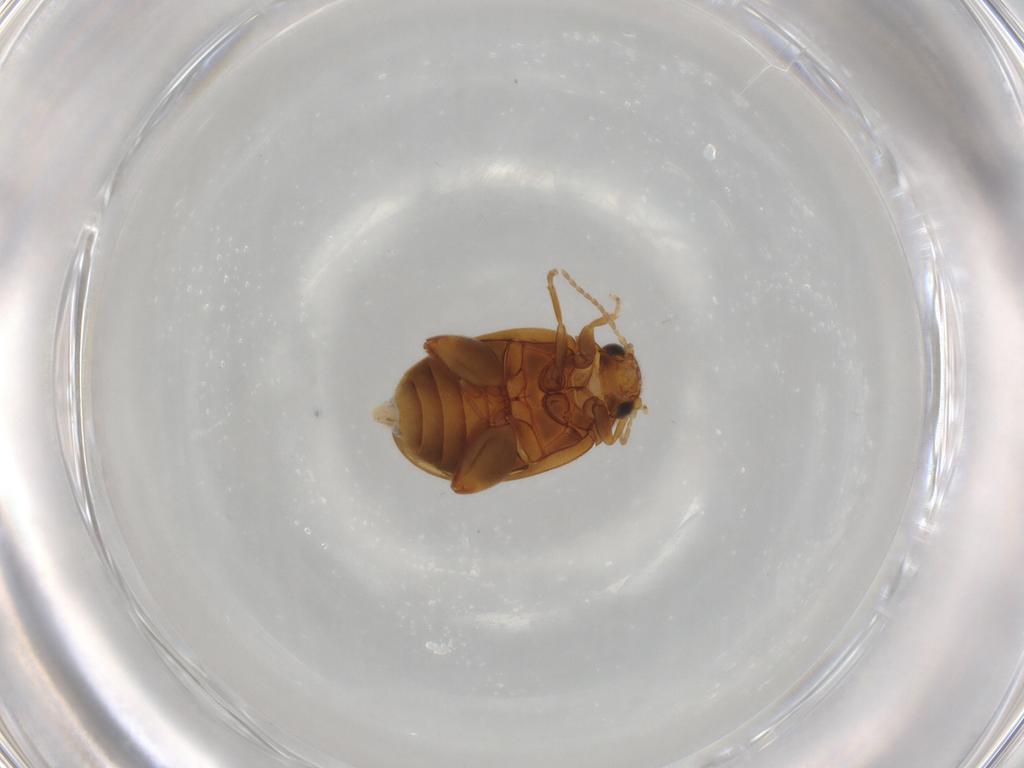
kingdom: Animalia
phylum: Arthropoda
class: Insecta
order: Coleoptera
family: Scirtidae
